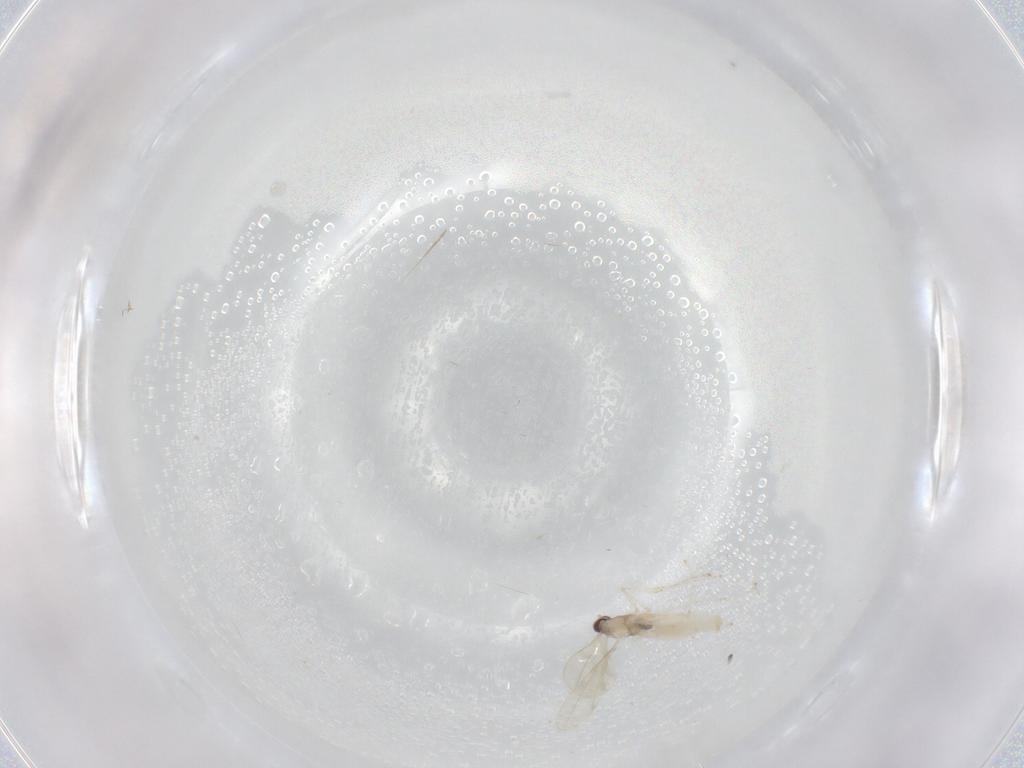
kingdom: Animalia
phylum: Arthropoda
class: Insecta
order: Diptera
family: Cecidomyiidae
